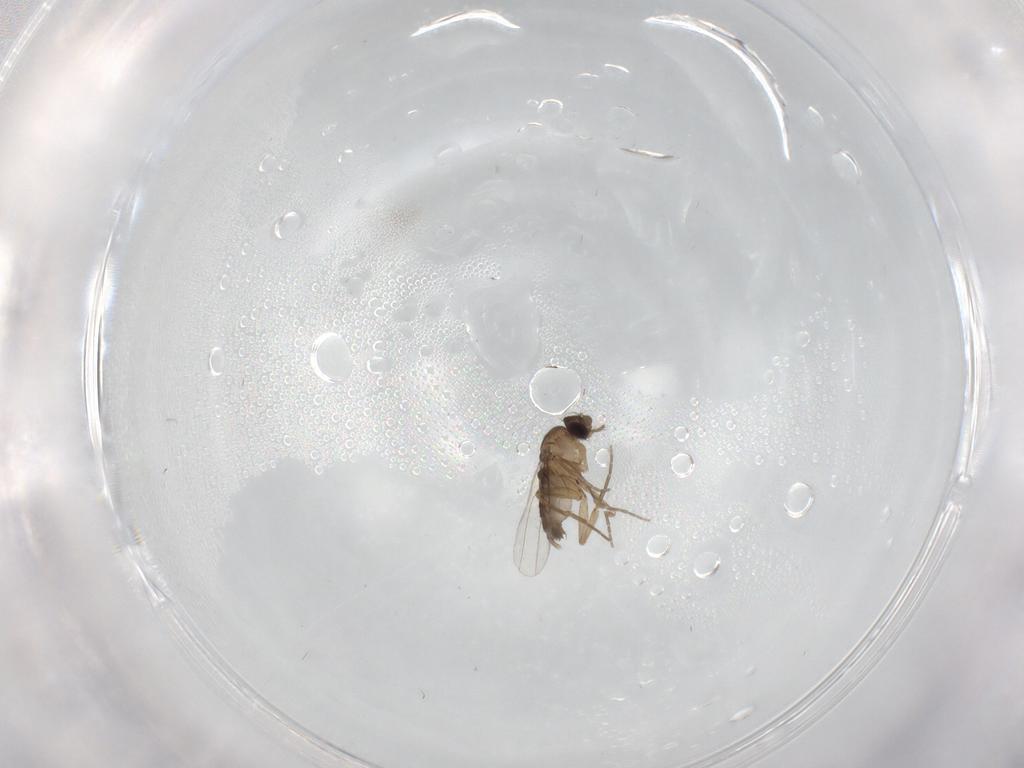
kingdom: Animalia
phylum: Arthropoda
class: Insecta
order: Diptera
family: Phoridae
